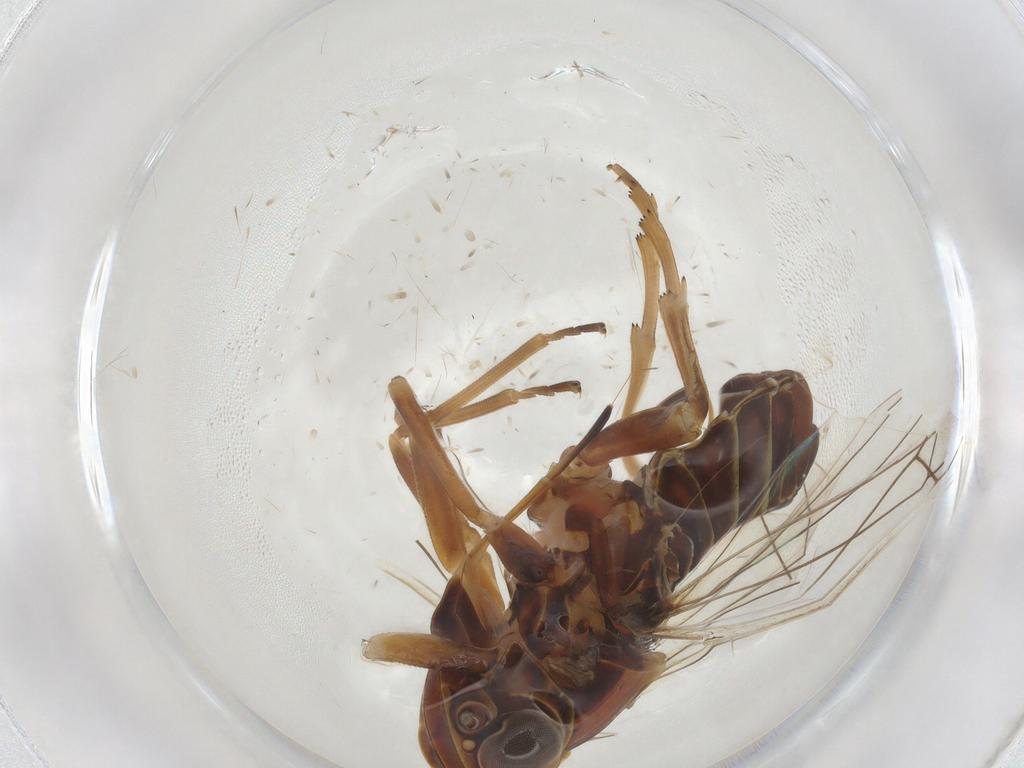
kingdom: Animalia
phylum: Arthropoda
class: Insecta
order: Hemiptera
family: Cixiidae
